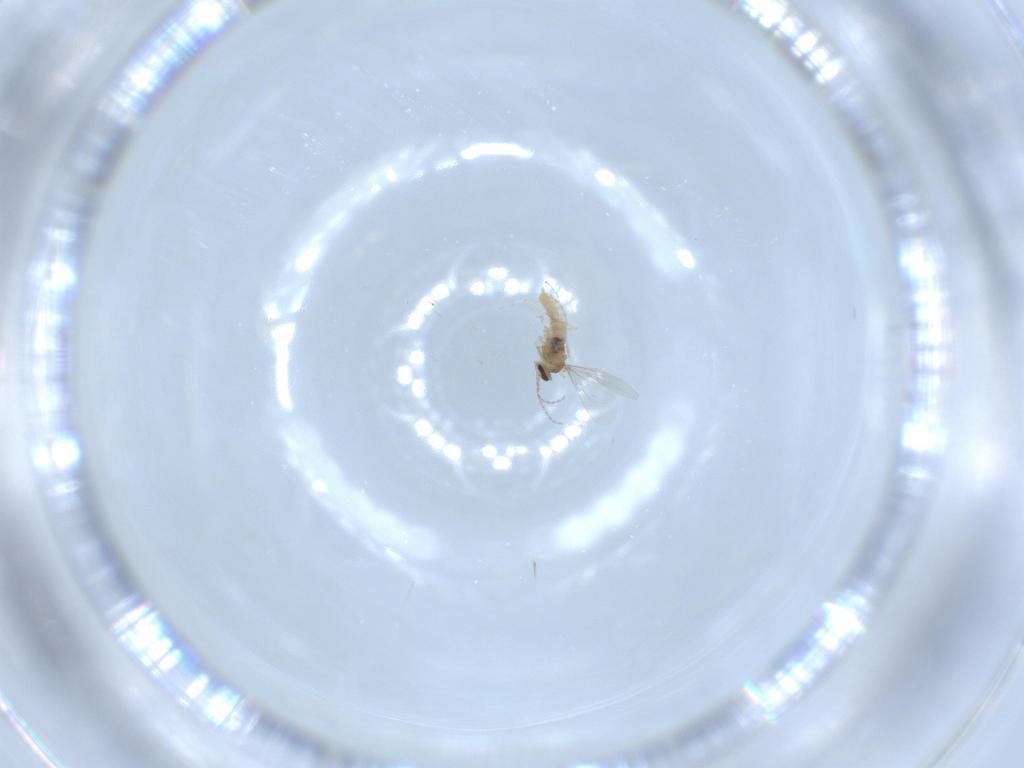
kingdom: Animalia
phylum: Arthropoda
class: Insecta
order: Diptera
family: Cecidomyiidae
